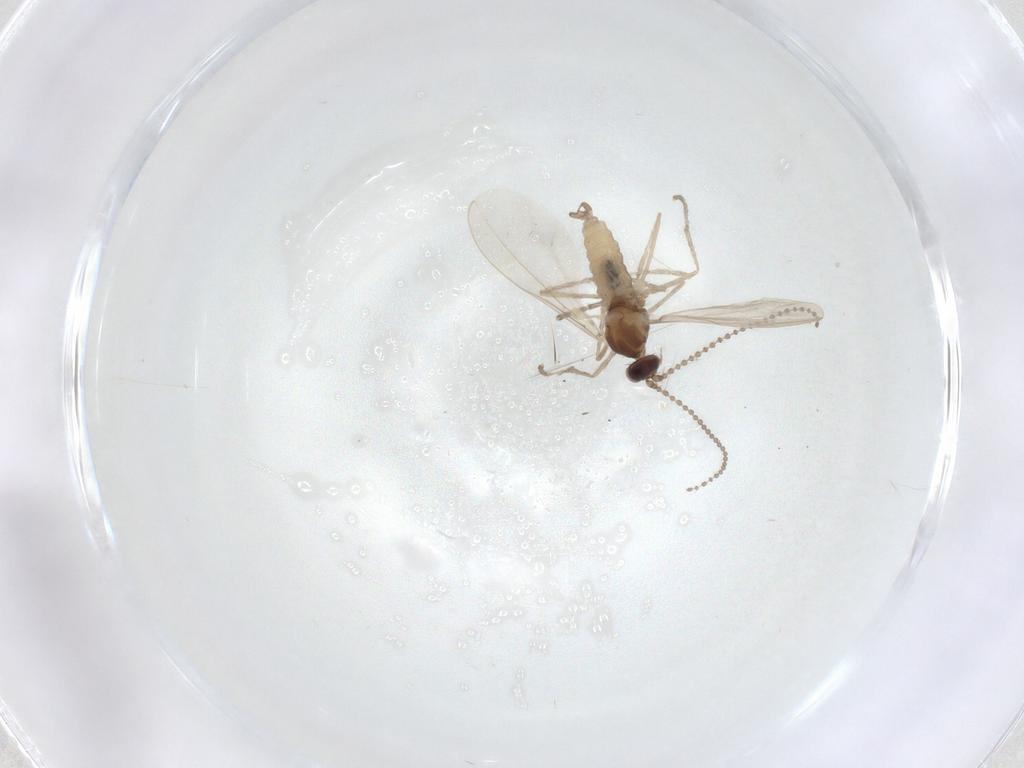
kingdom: Animalia
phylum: Arthropoda
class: Insecta
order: Diptera
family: Cecidomyiidae
